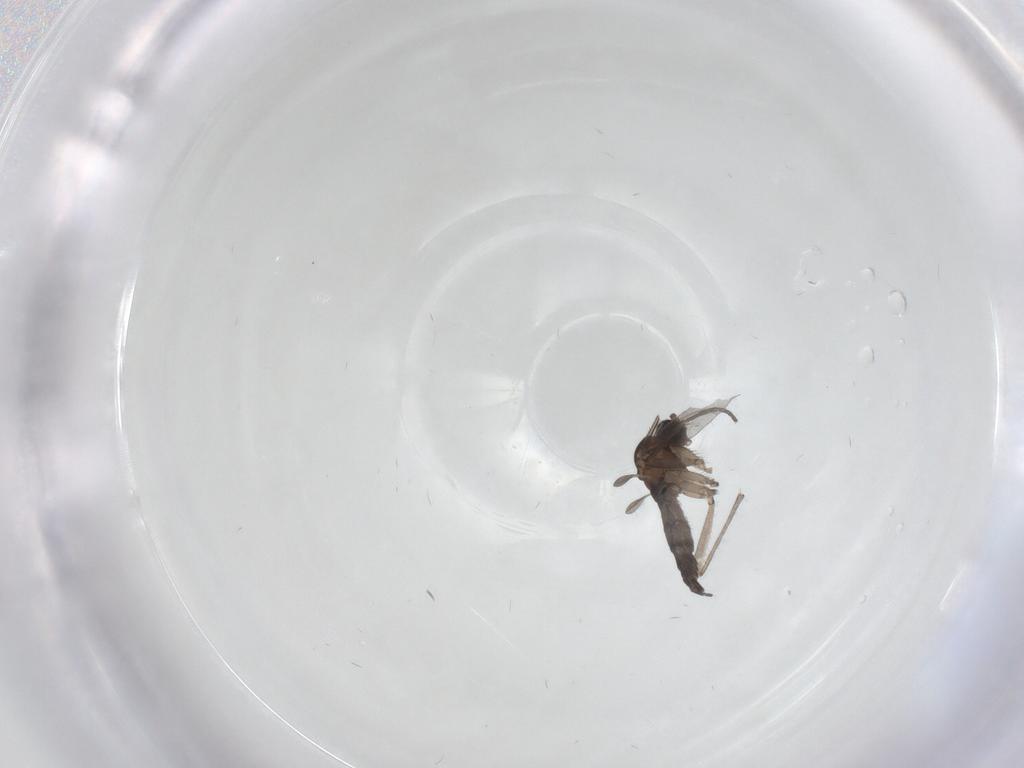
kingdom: Animalia
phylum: Arthropoda
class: Insecta
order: Diptera
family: Sciaridae
